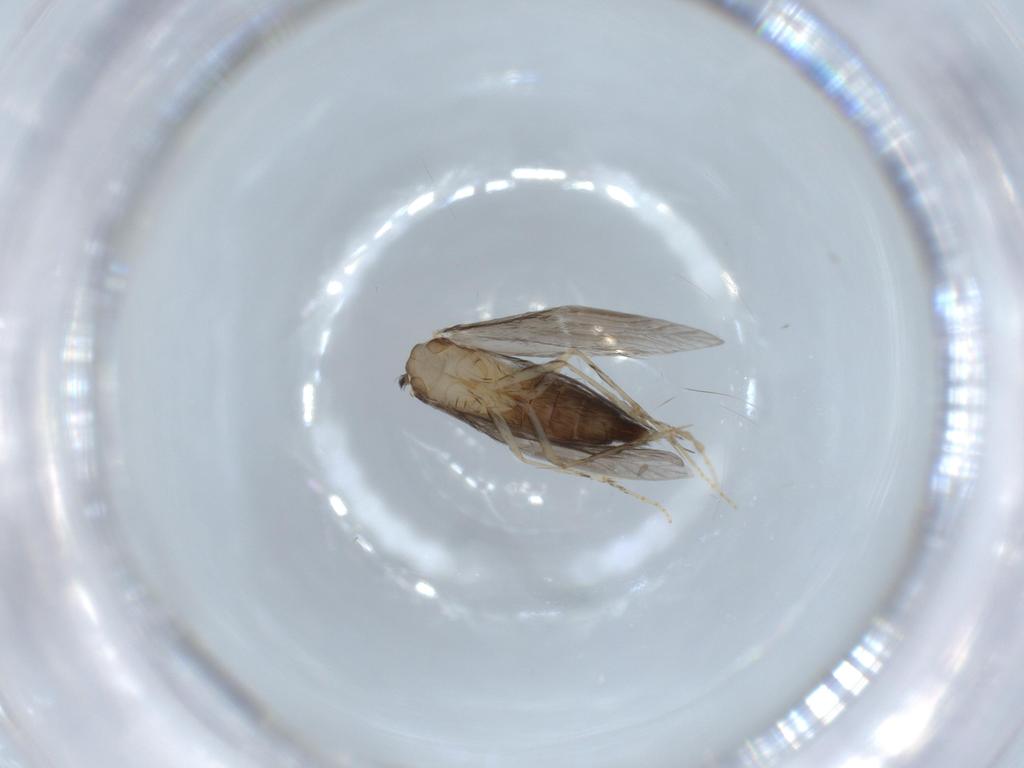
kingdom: Animalia
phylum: Arthropoda
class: Insecta
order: Trichoptera
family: Hydroptilidae
